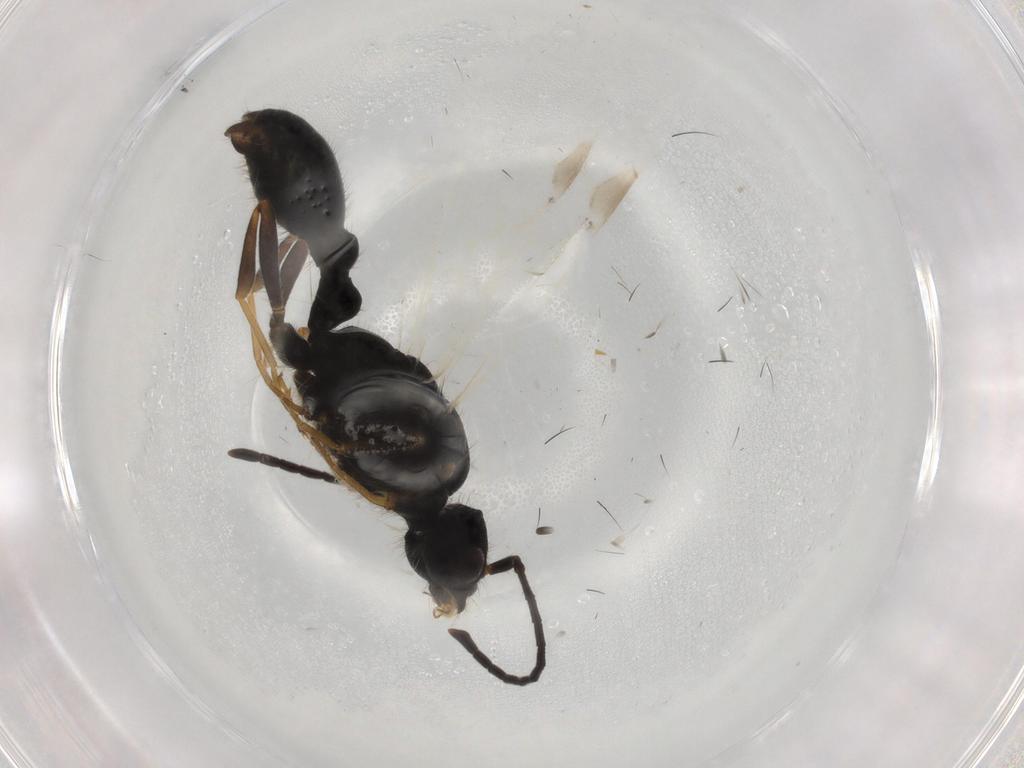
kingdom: Animalia
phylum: Arthropoda
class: Insecta
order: Hymenoptera
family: Formicidae
